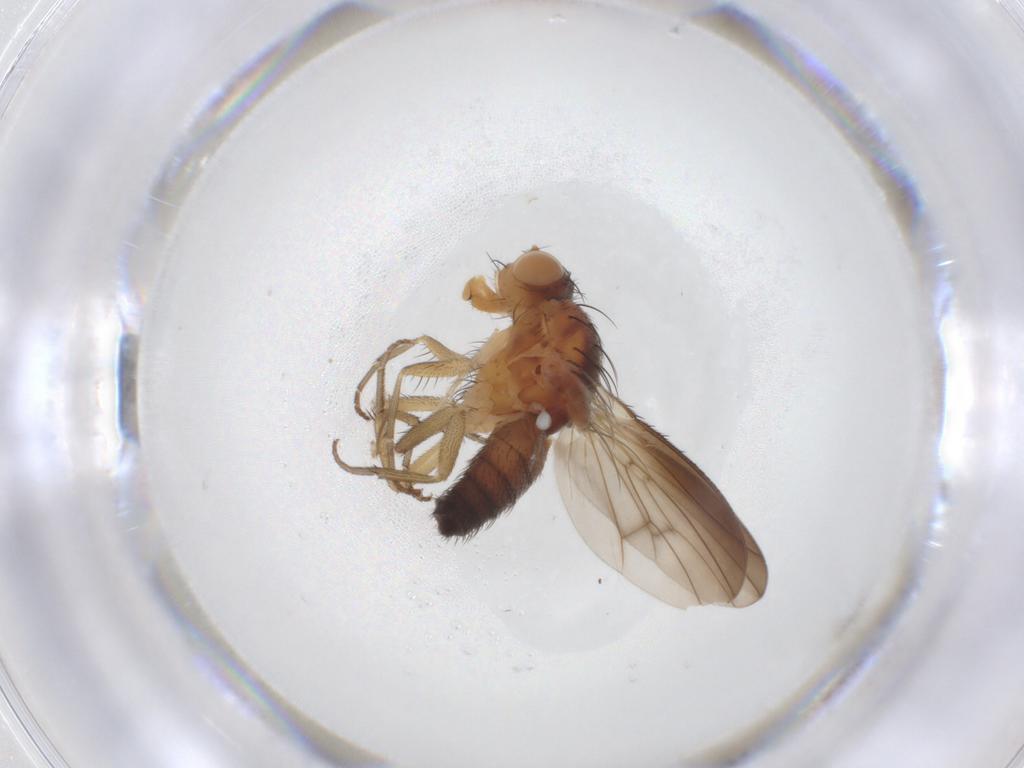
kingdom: Animalia
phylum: Arthropoda
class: Insecta
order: Diptera
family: Heleomyzidae
